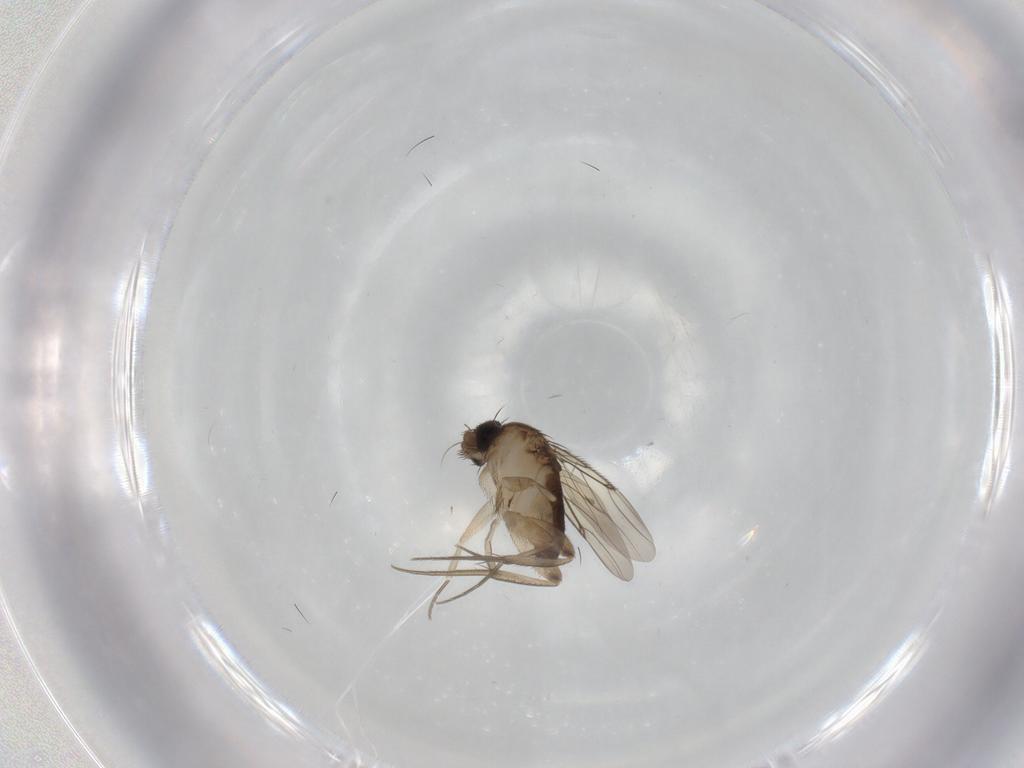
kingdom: Animalia
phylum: Arthropoda
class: Insecta
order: Diptera
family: Phoridae
